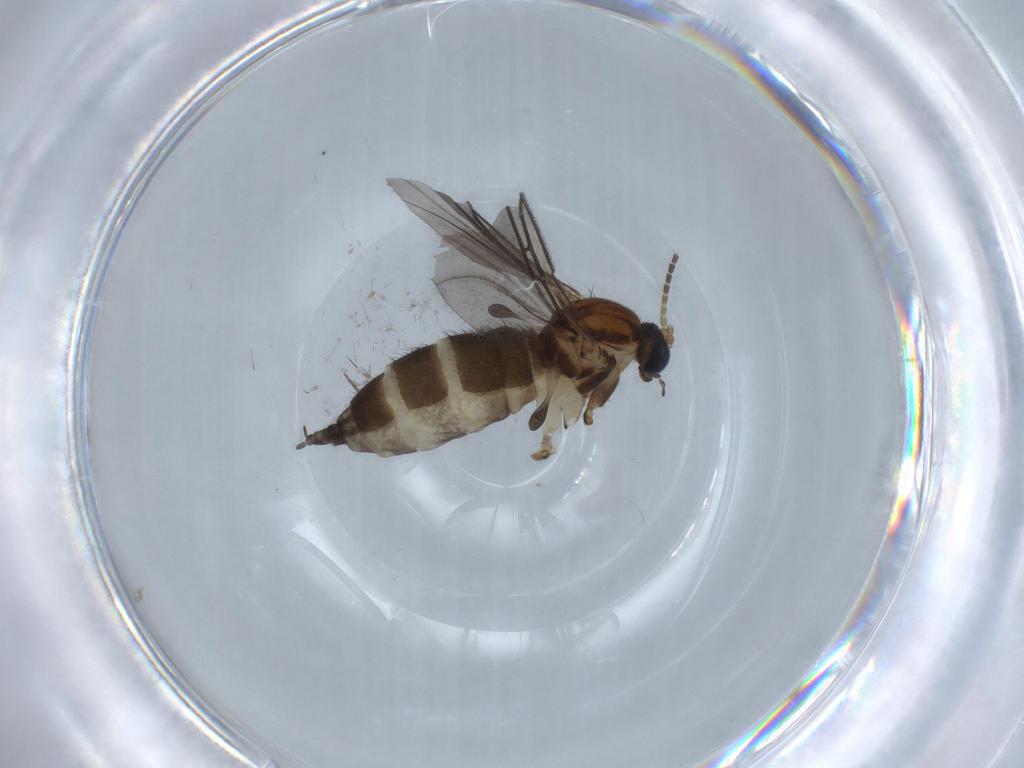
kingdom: Animalia
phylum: Arthropoda
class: Insecta
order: Diptera
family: Sciaridae
